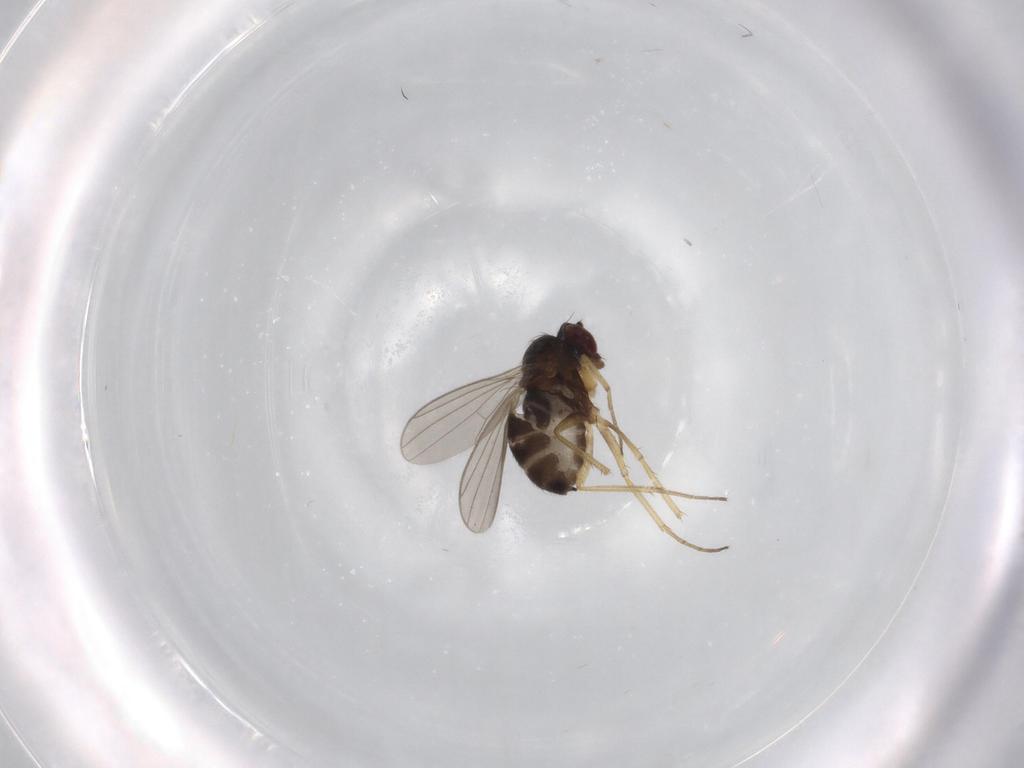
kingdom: Animalia
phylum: Arthropoda
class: Insecta
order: Diptera
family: Dolichopodidae
